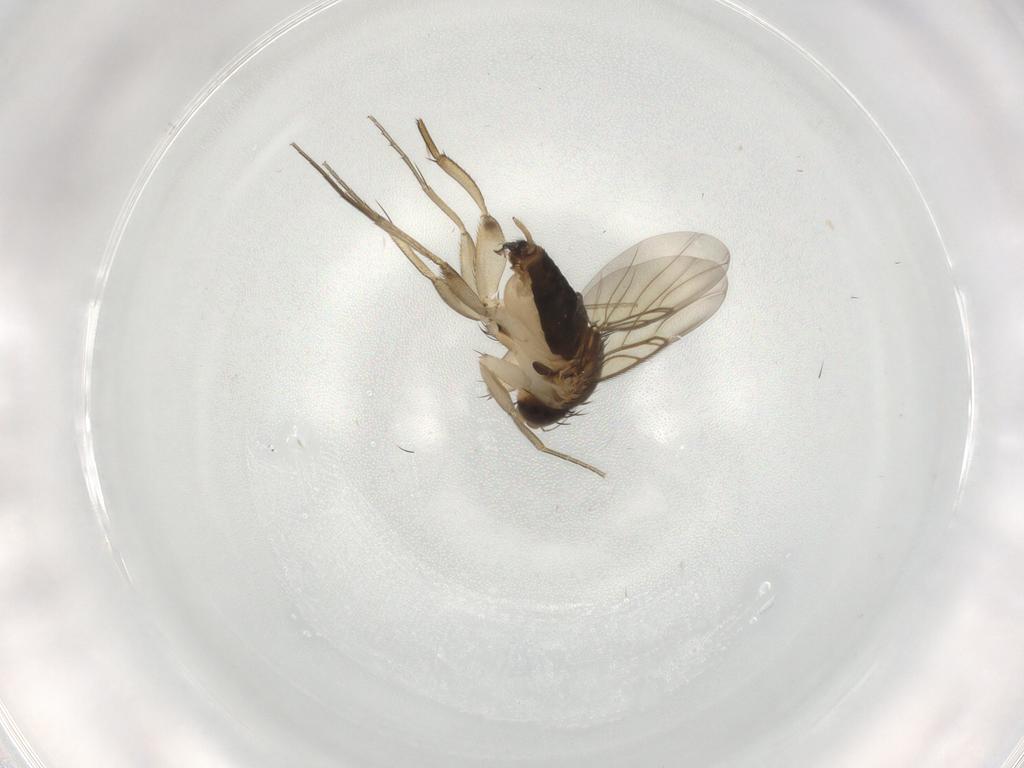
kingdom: Animalia
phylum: Arthropoda
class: Insecta
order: Diptera
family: Phoridae
